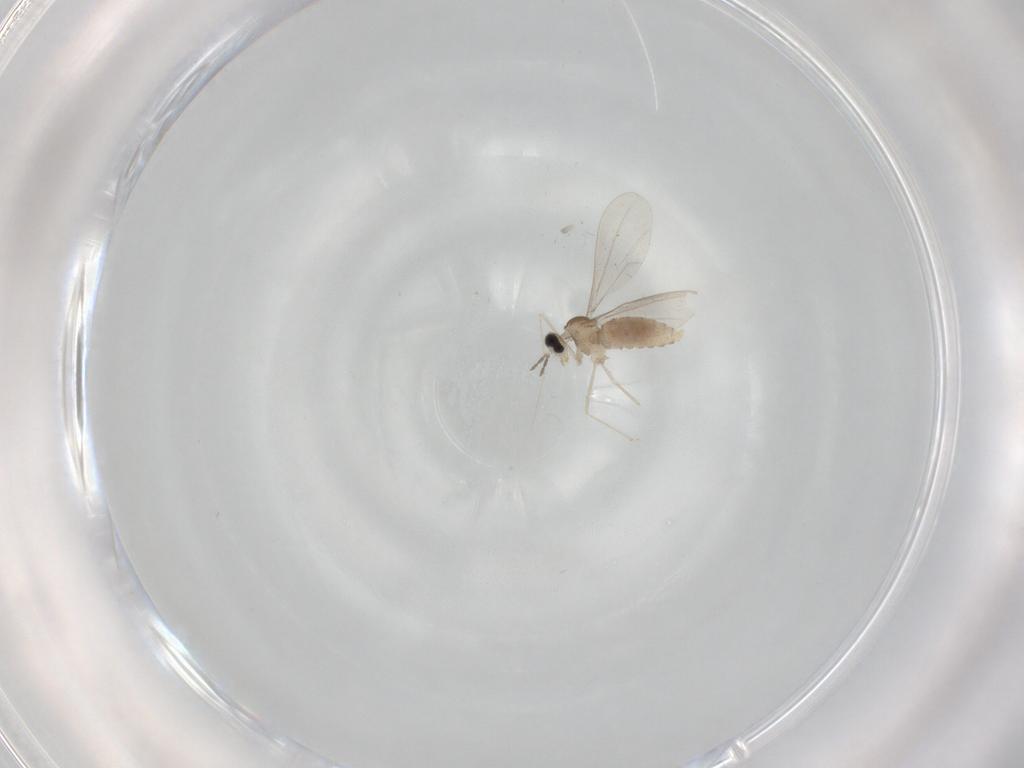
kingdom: Animalia
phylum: Arthropoda
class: Insecta
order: Diptera
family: Cecidomyiidae
